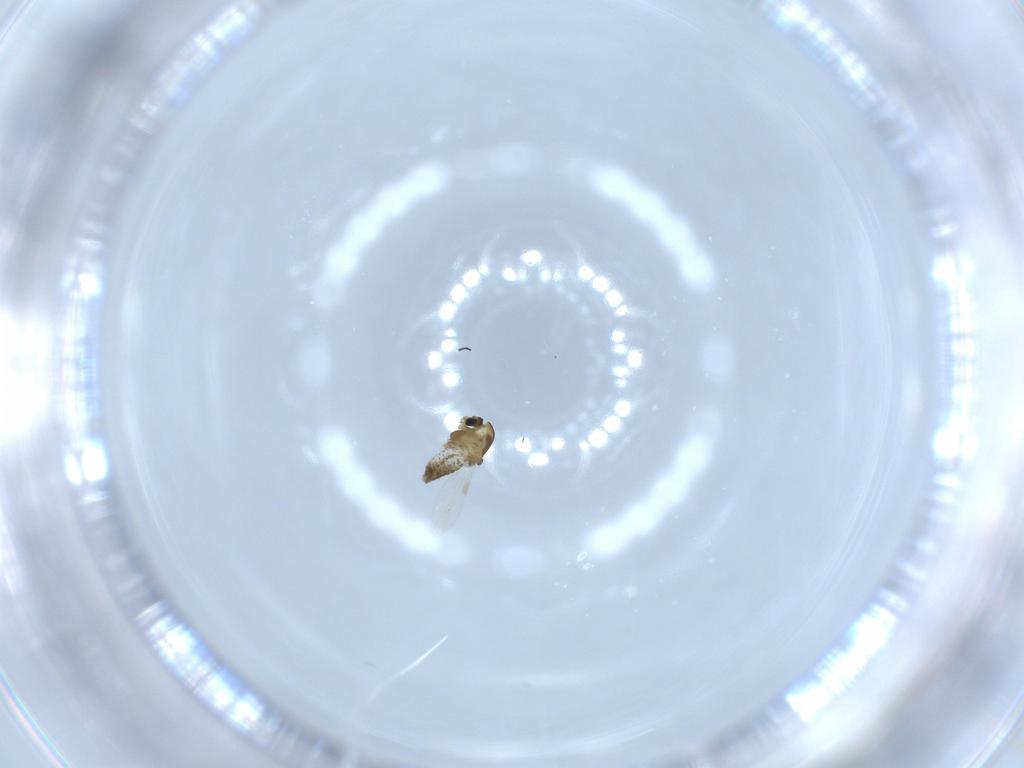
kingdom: Animalia
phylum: Arthropoda
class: Insecta
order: Diptera
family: Chironomidae
